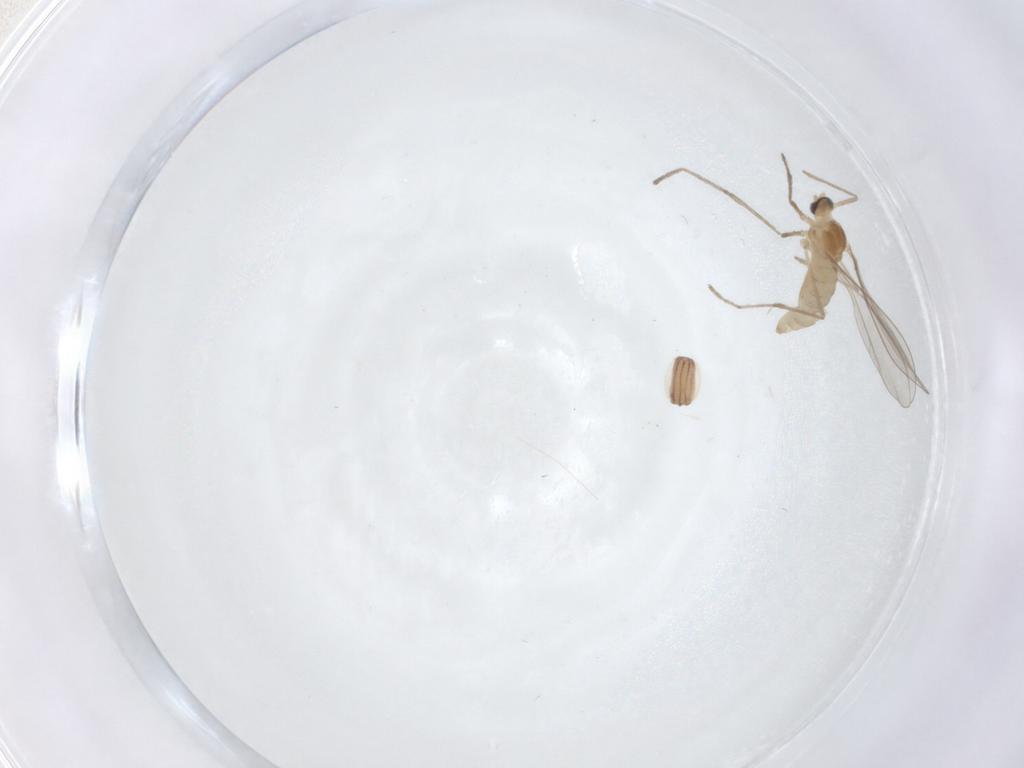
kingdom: Animalia
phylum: Arthropoda
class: Insecta
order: Diptera
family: Cecidomyiidae
